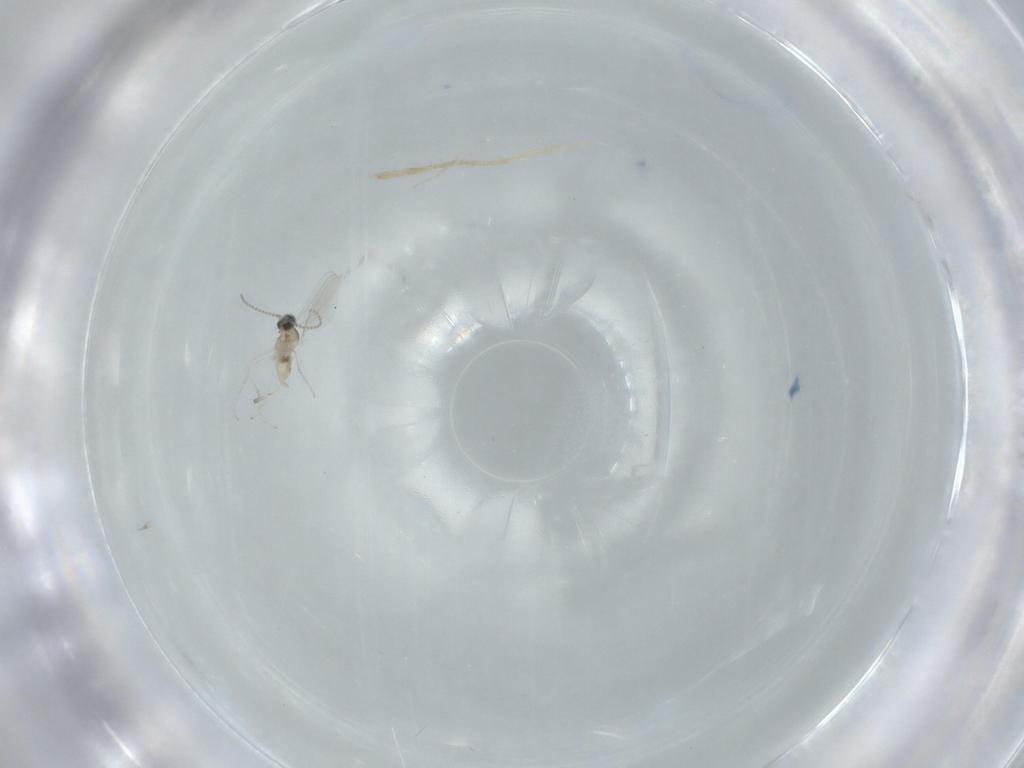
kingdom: Animalia
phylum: Arthropoda
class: Insecta
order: Diptera
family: Cecidomyiidae
